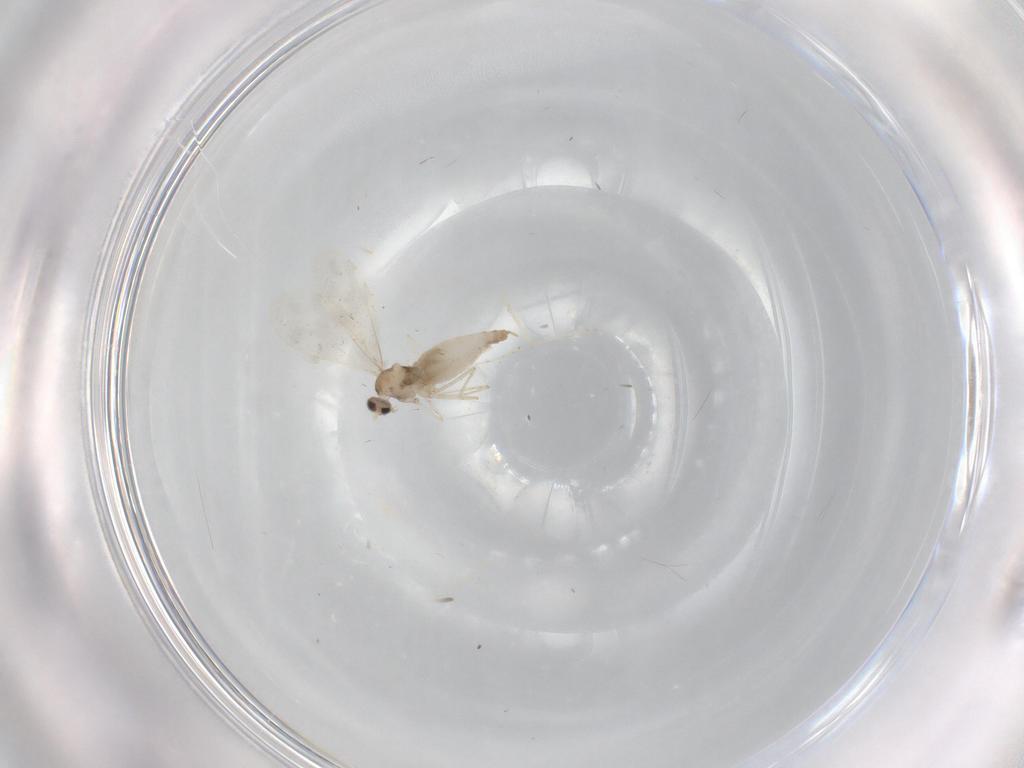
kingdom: Animalia
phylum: Arthropoda
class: Insecta
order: Diptera
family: Cecidomyiidae
